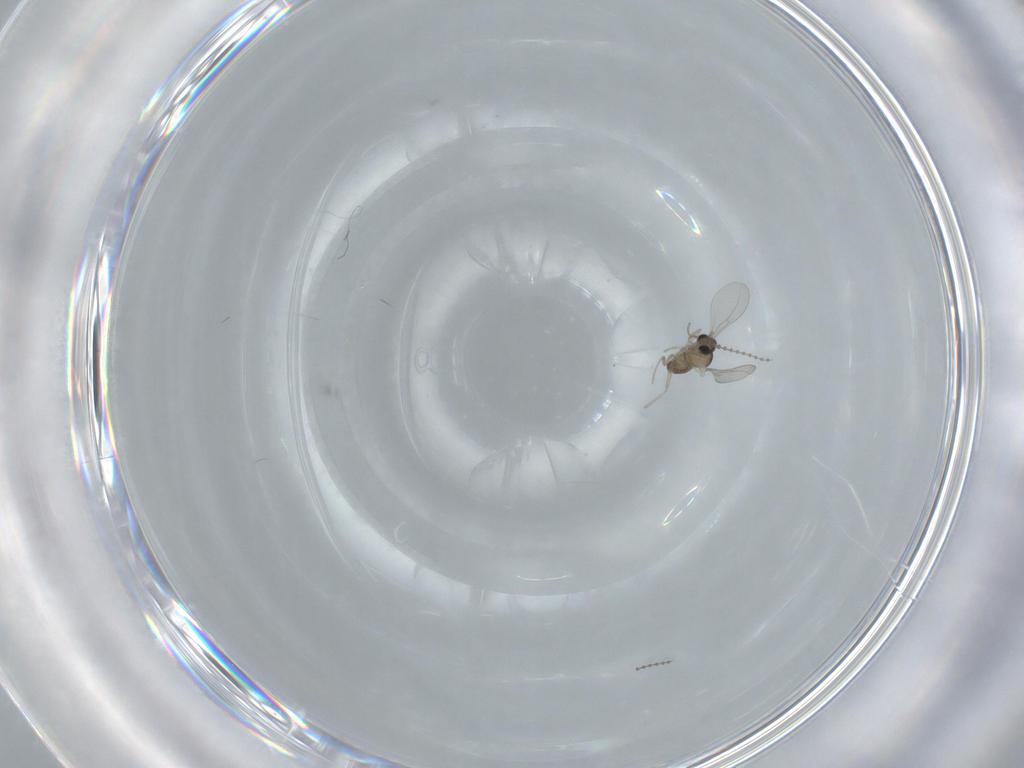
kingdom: Animalia
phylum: Arthropoda
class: Insecta
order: Diptera
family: Cecidomyiidae
